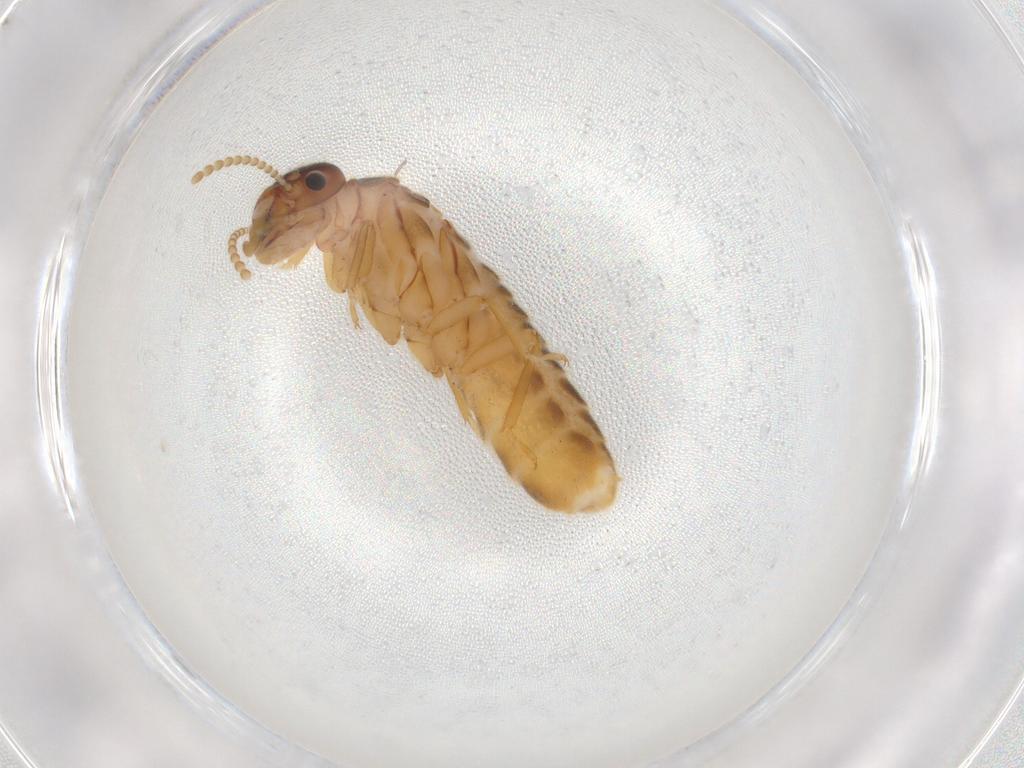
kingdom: Animalia
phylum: Arthropoda
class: Insecta
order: Blattodea
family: Termitidae
